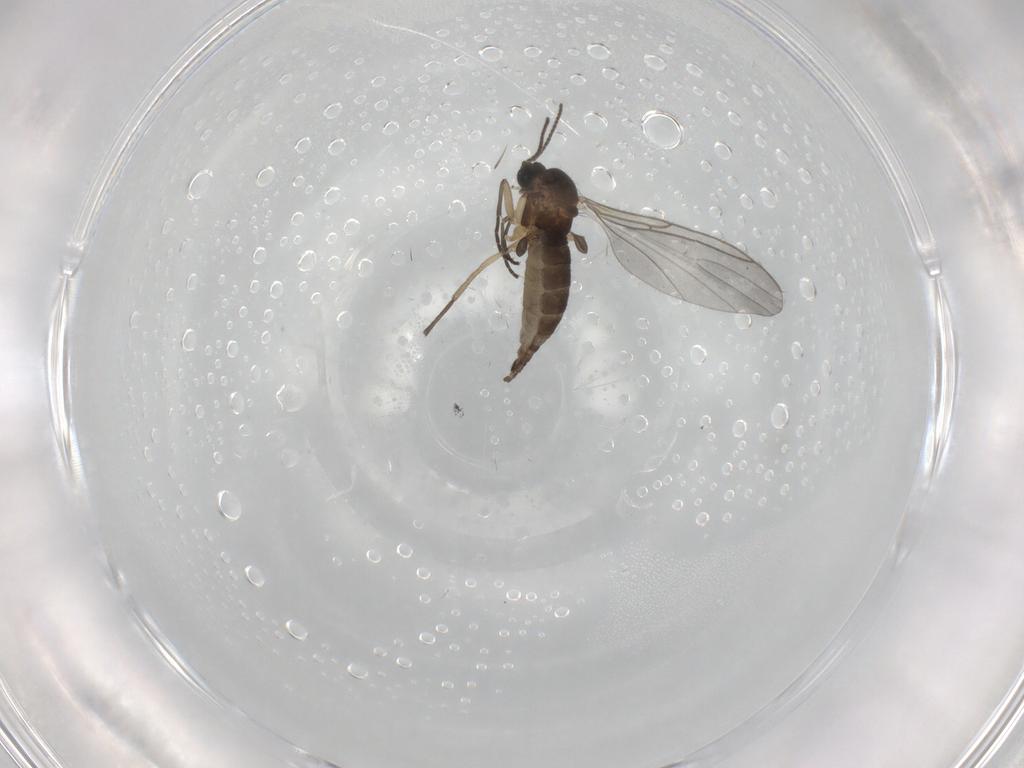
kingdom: Animalia
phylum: Arthropoda
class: Insecta
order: Diptera
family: Sciaridae
